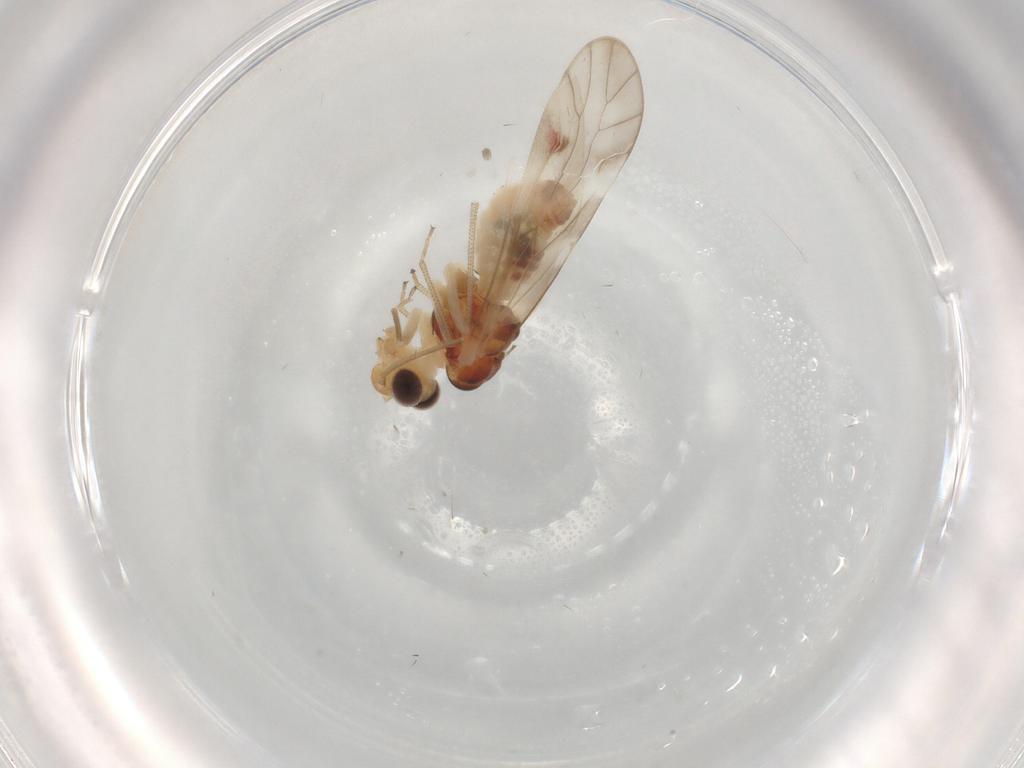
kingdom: Animalia
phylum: Arthropoda
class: Insecta
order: Psocodea
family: Caeciliusidae
